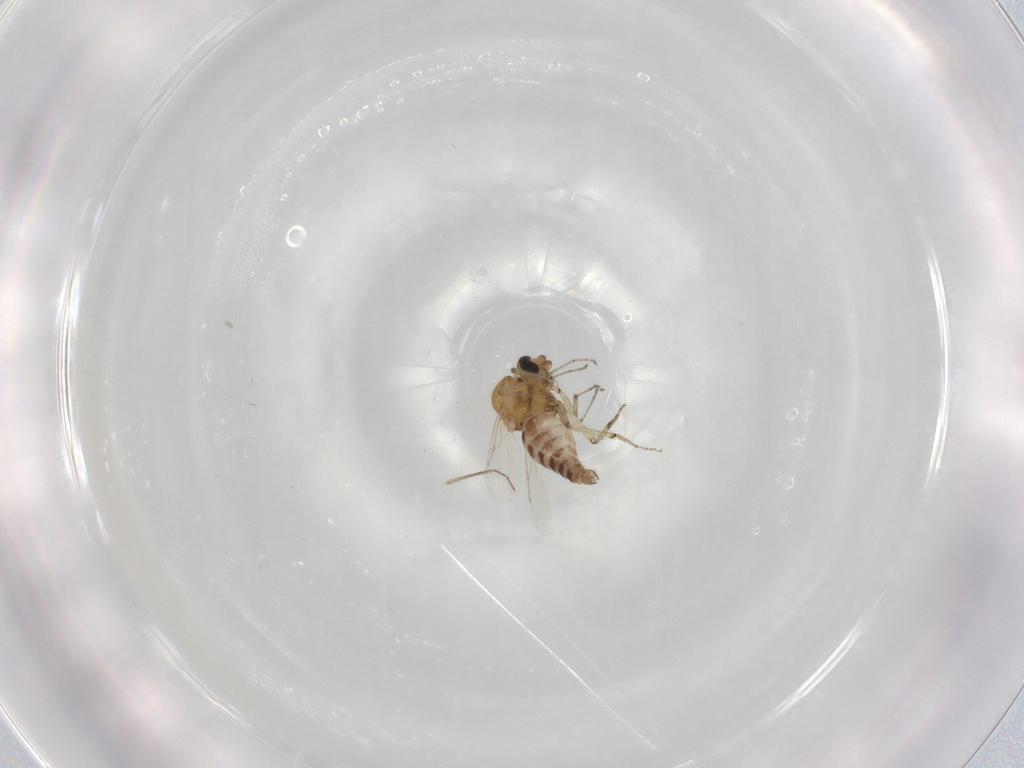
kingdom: Animalia
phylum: Arthropoda
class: Insecta
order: Diptera
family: Ceratopogonidae
